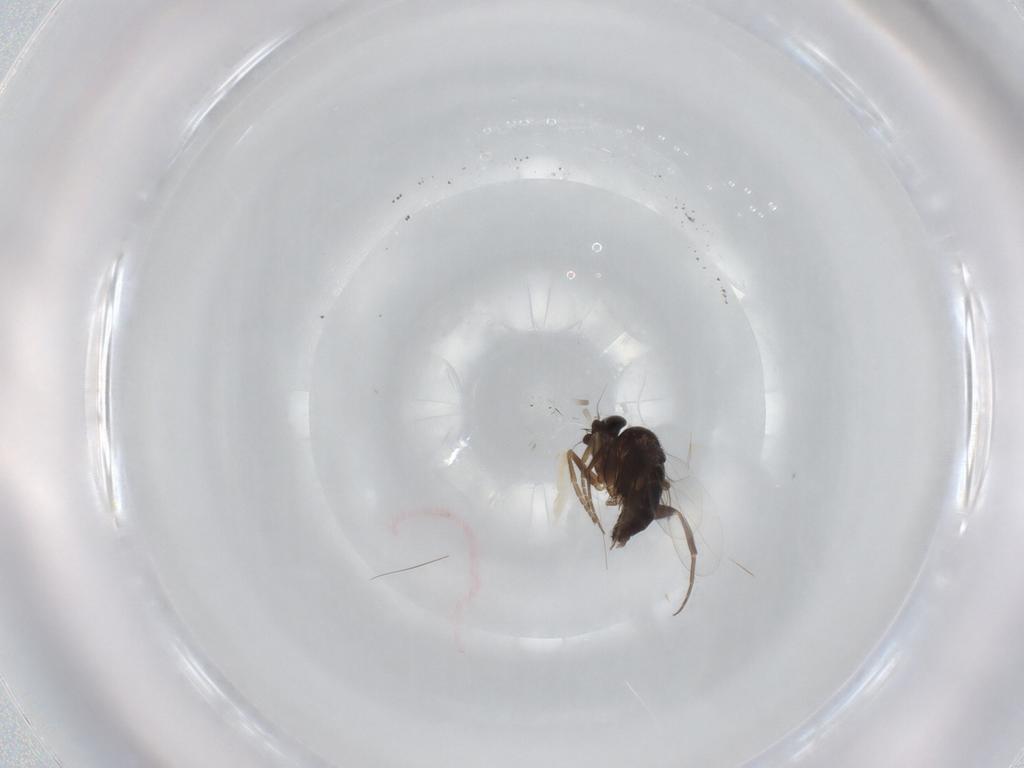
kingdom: Animalia
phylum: Arthropoda
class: Insecta
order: Diptera
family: Phoridae
